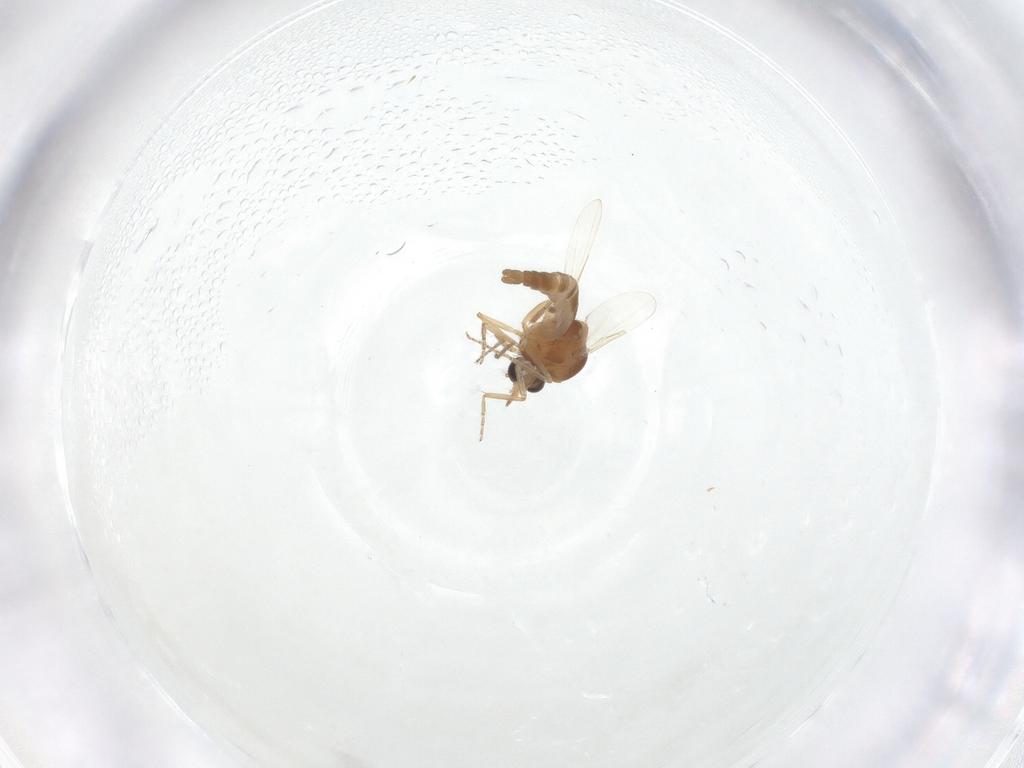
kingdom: Animalia
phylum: Arthropoda
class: Insecta
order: Diptera
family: Ceratopogonidae
